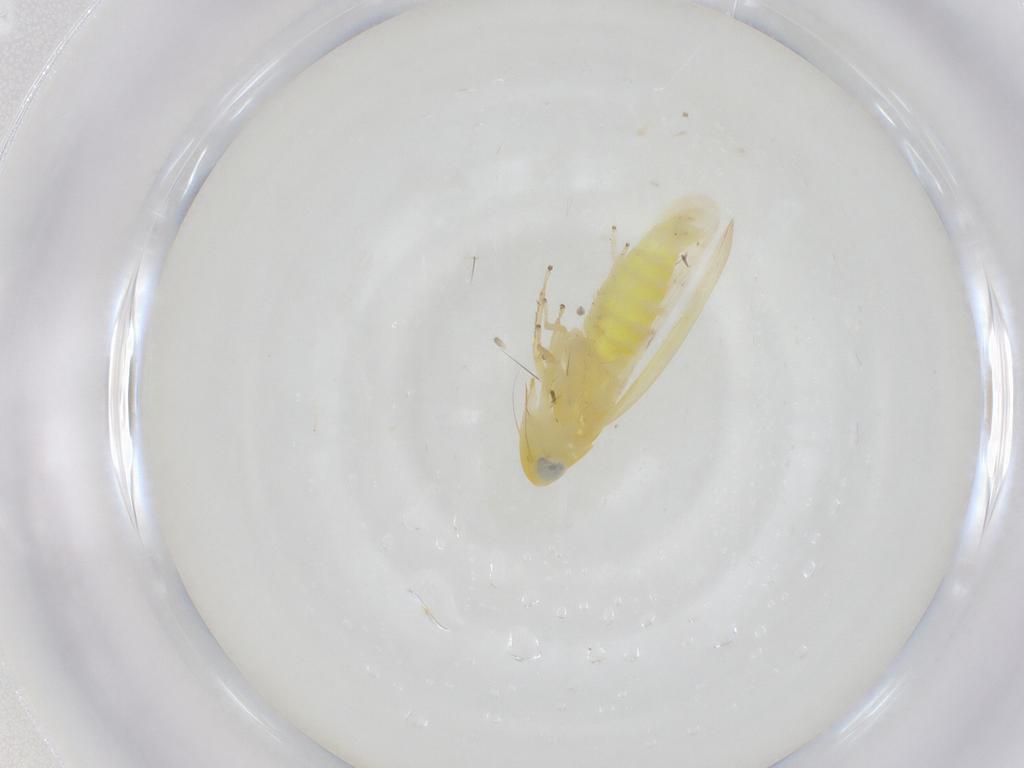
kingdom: Animalia
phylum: Arthropoda
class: Insecta
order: Hemiptera
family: Cicadellidae
